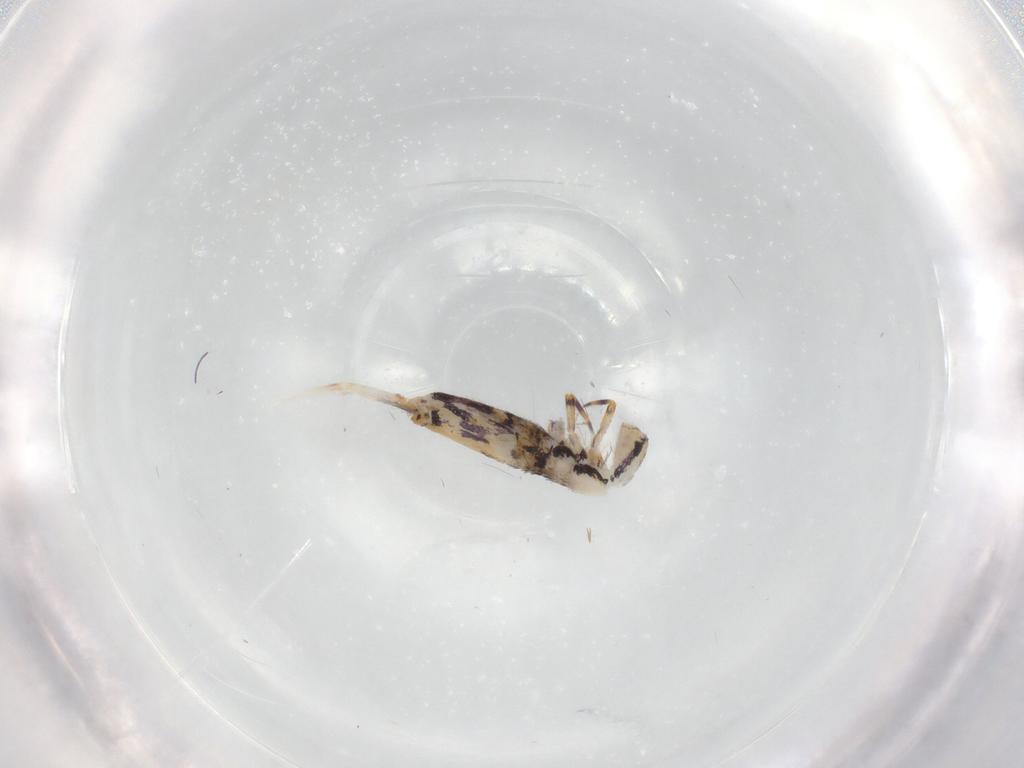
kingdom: Animalia
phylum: Arthropoda
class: Collembola
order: Entomobryomorpha
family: Entomobryidae
